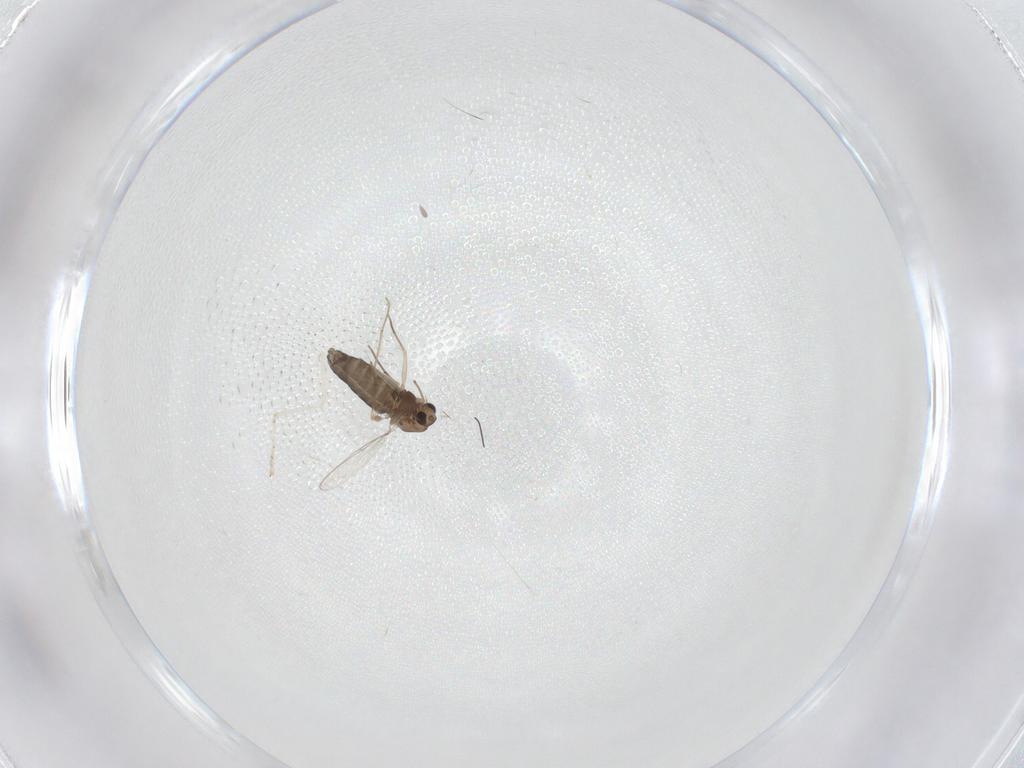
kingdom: Animalia
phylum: Arthropoda
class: Insecta
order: Diptera
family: Cecidomyiidae
